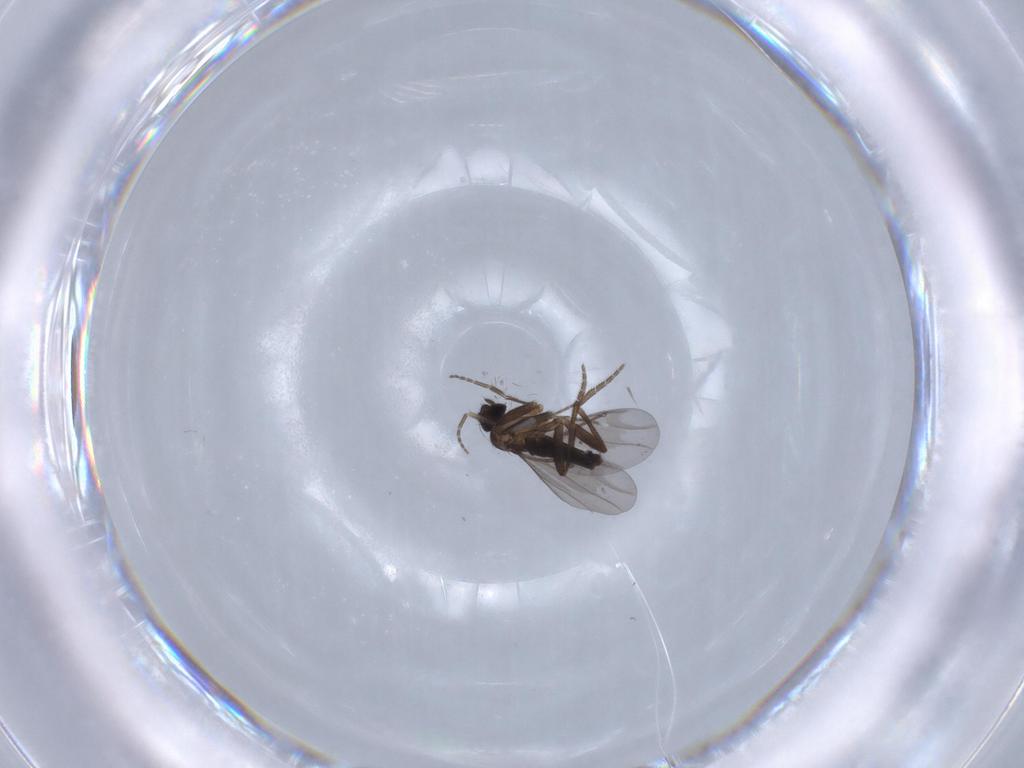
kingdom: Animalia
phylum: Arthropoda
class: Insecta
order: Diptera
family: Phoridae
